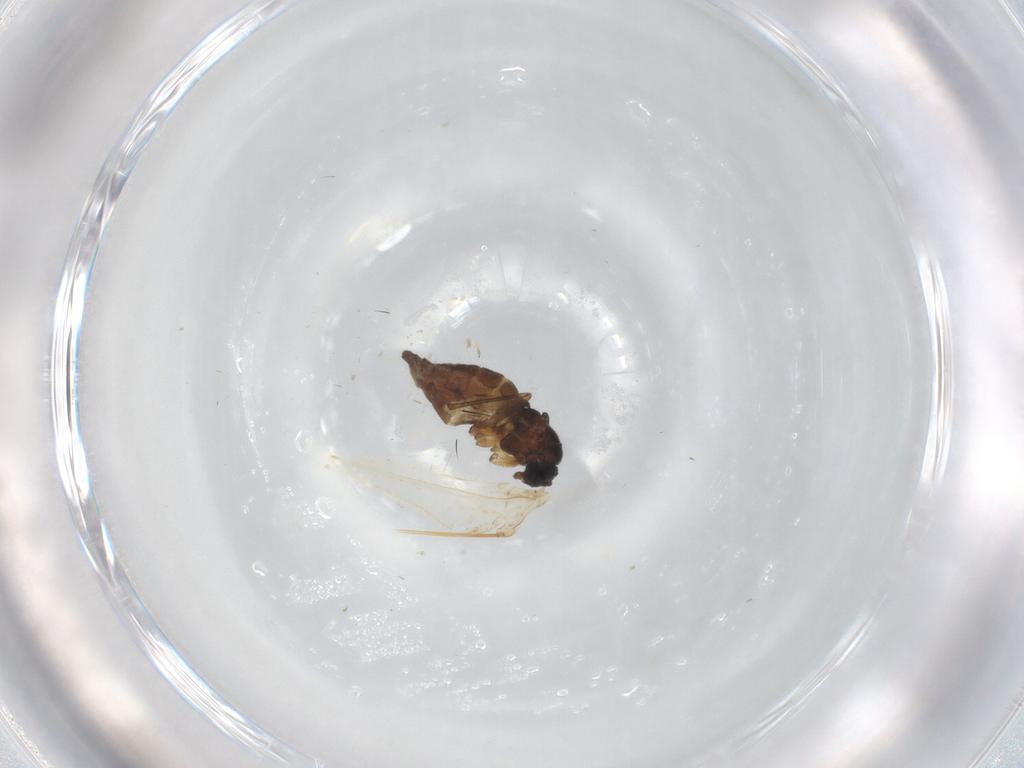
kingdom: Animalia
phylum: Arthropoda
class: Insecta
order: Diptera
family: Sciaridae
